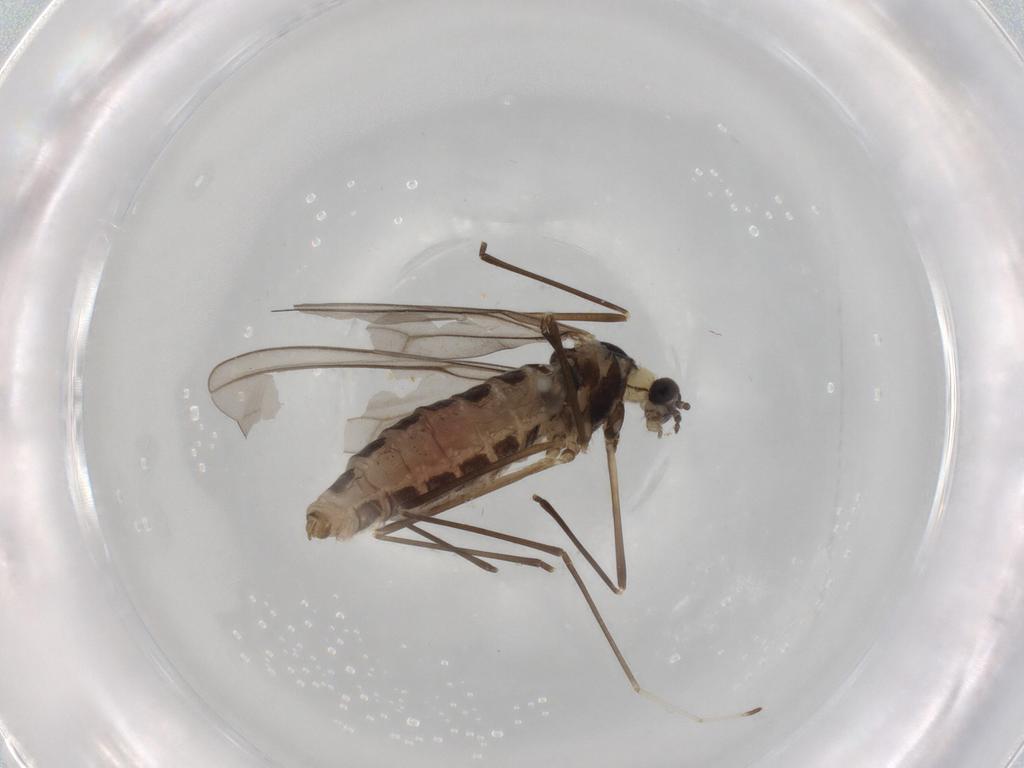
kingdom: Animalia
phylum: Arthropoda
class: Insecta
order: Diptera
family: Cecidomyiidae
